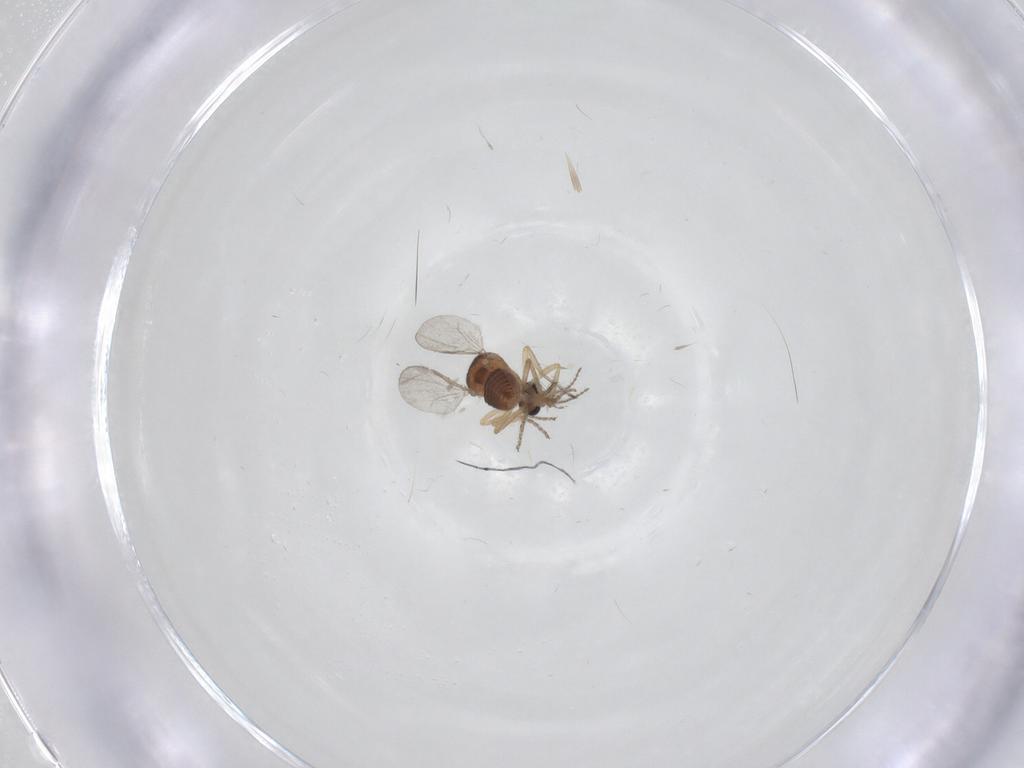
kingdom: Animalia
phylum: Arthropoda
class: Insecta
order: Diptera
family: Ceratopogonidae
